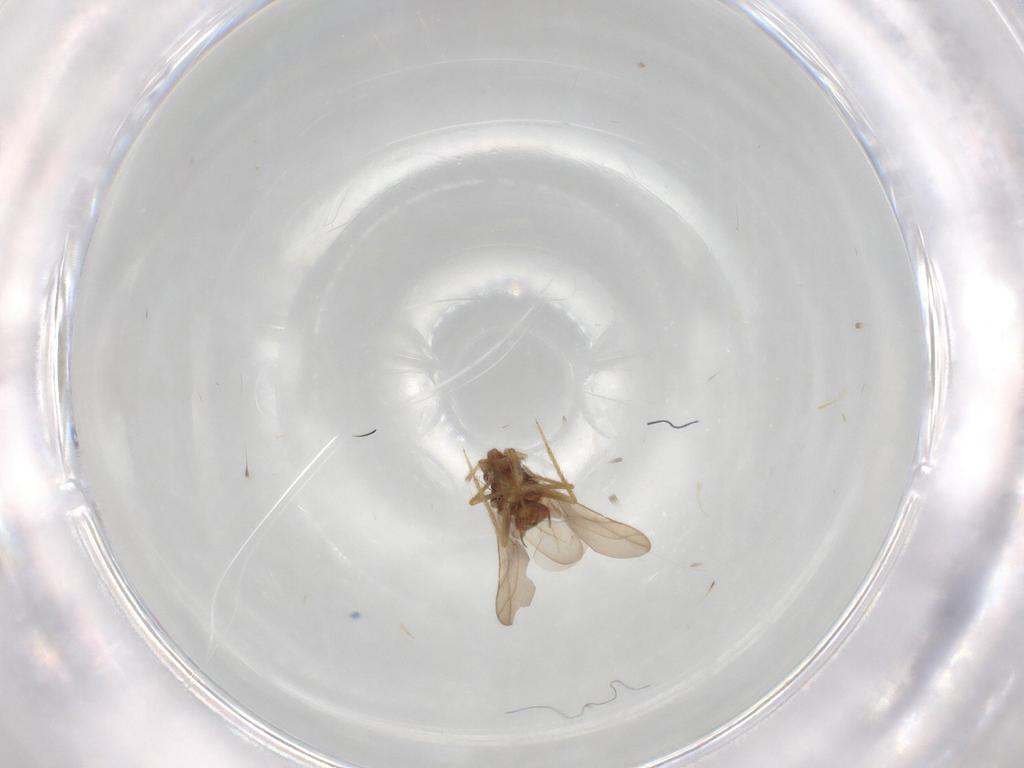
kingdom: Animalia
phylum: Arthropoda
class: Insecta
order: Hemiptera
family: Ceratocombidae
